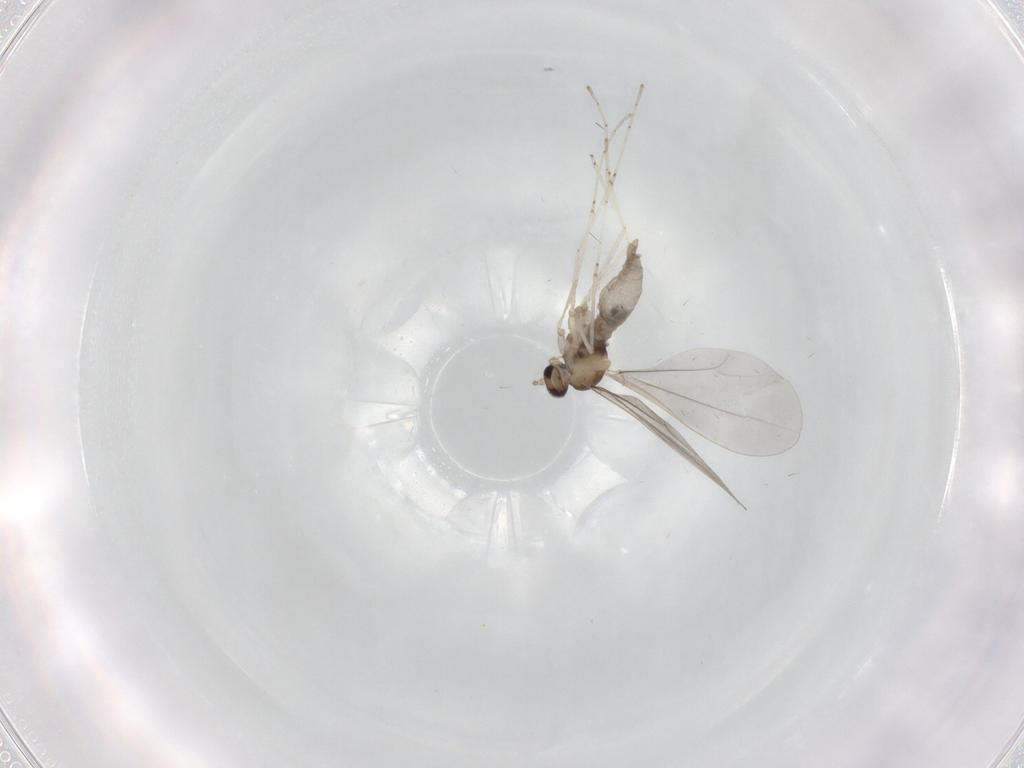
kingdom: Animalia
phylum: Arthropoda
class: Insecta
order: Diptera
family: Cecidomyiidae
